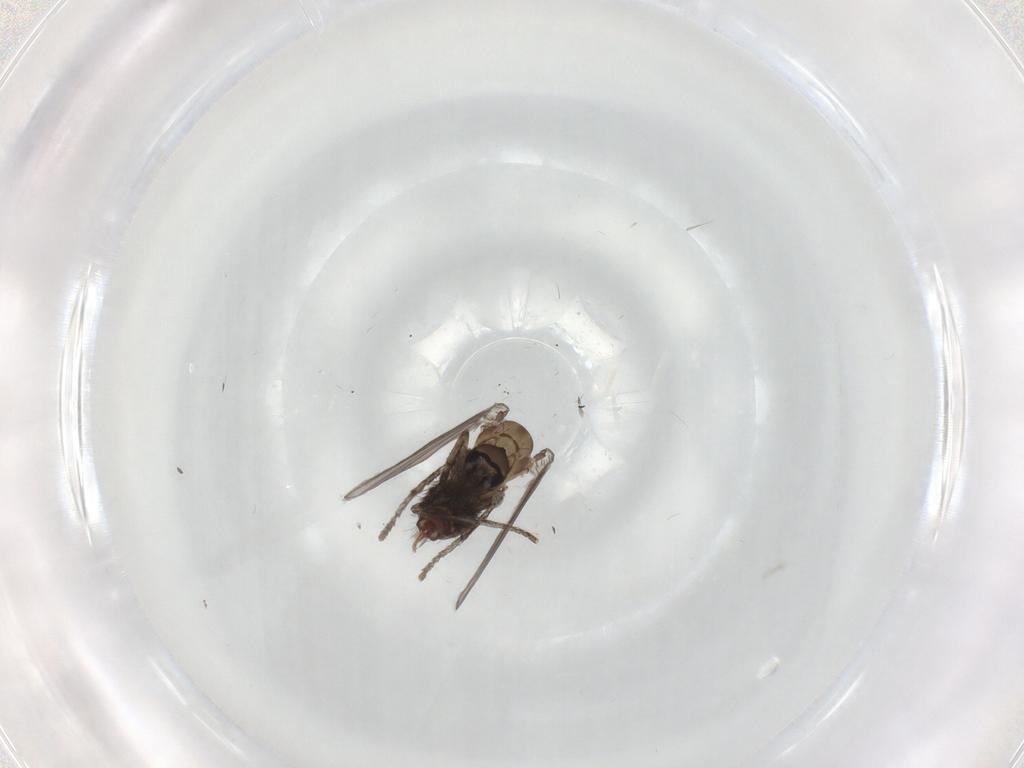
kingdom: Animalia
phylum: Arthropoda
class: Insecta
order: Diptera
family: Psychodidae
